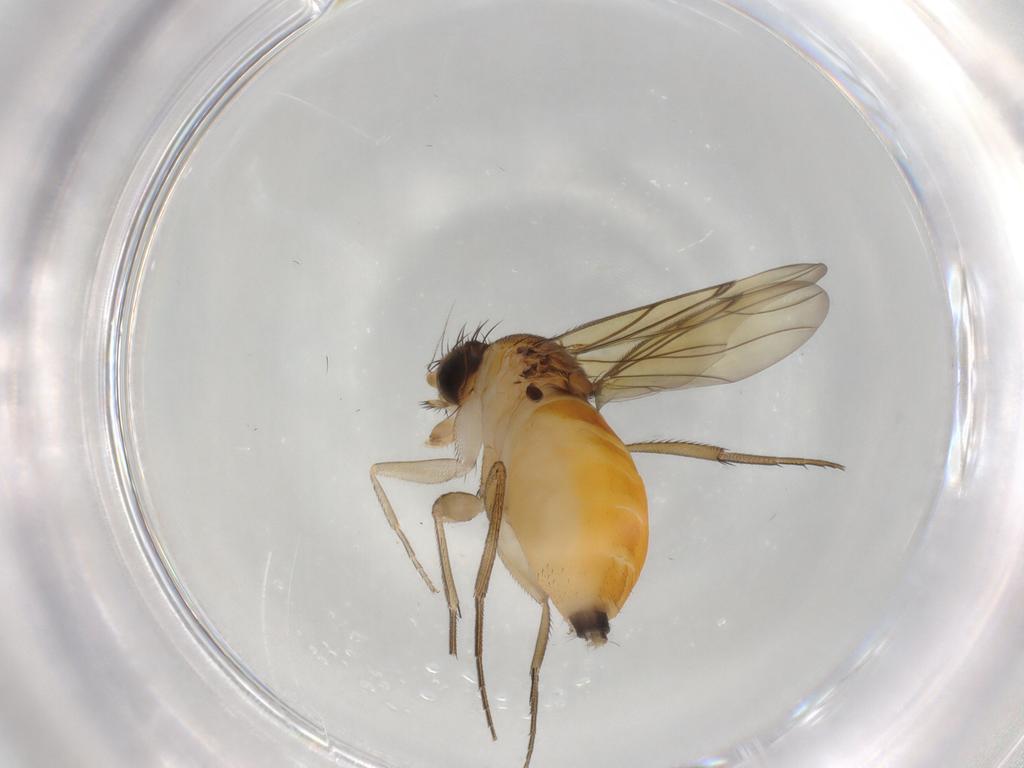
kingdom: Animalia
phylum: Arthropoda
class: Insecta
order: Diptera
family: Phoridae
